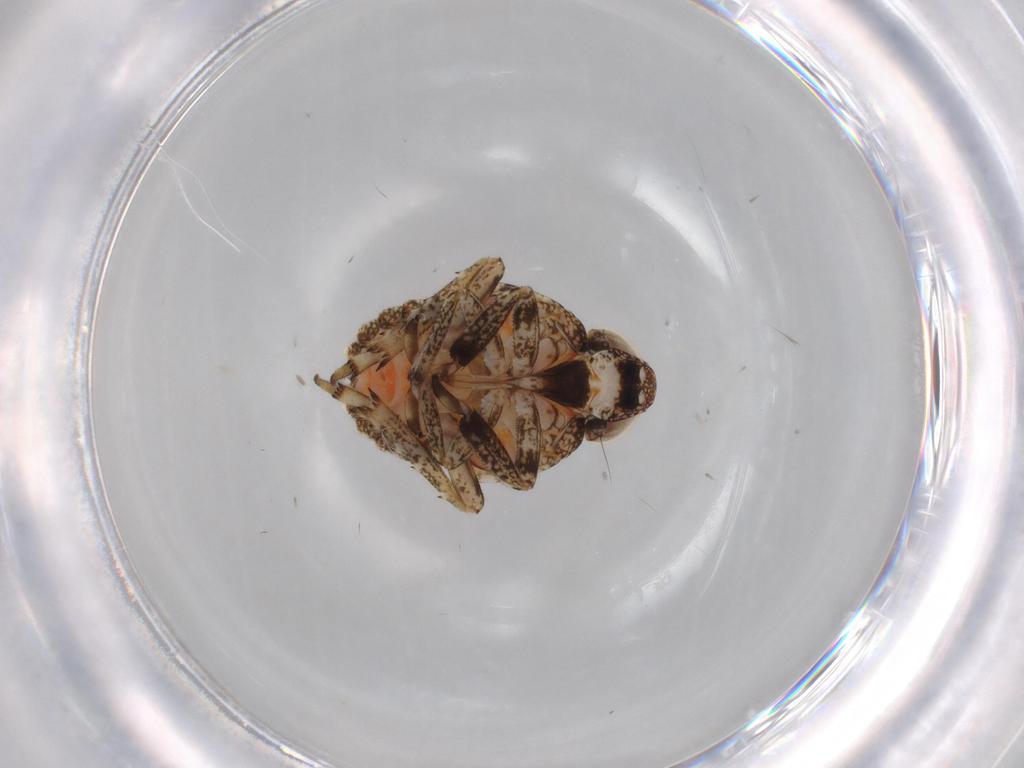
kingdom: Animalia
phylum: Arthropoda
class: Insecta
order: Hemiptera
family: Issidae
